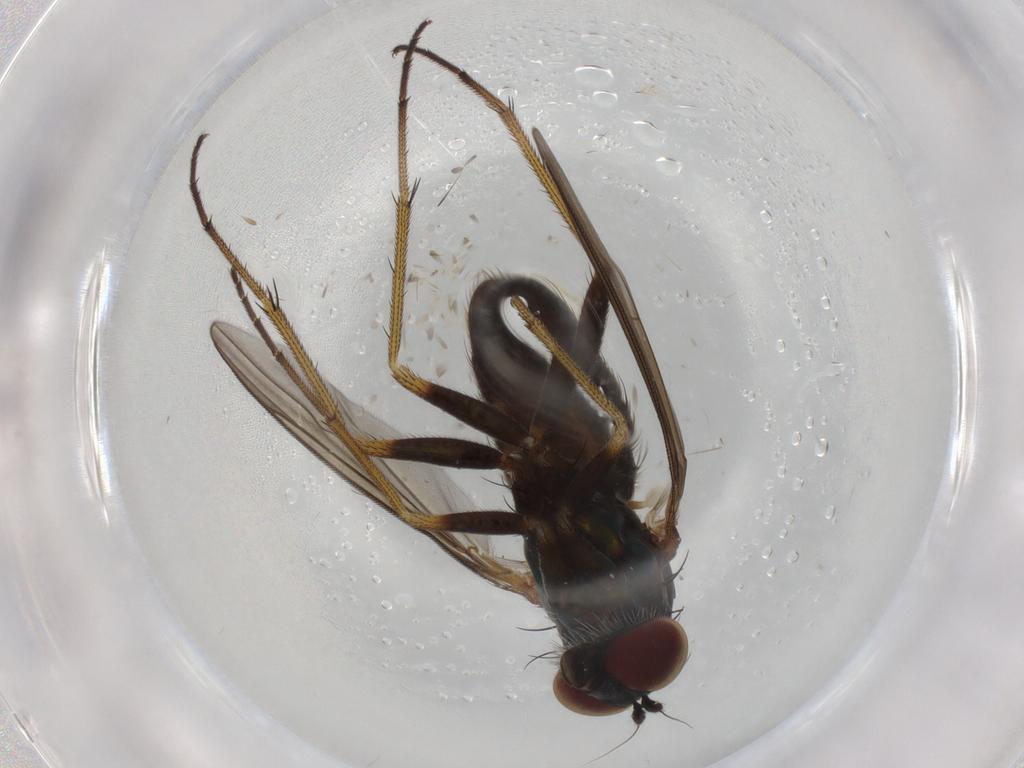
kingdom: Animalia
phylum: Arthropoda
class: Insecta
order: Diptera
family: Dolichopodidae
